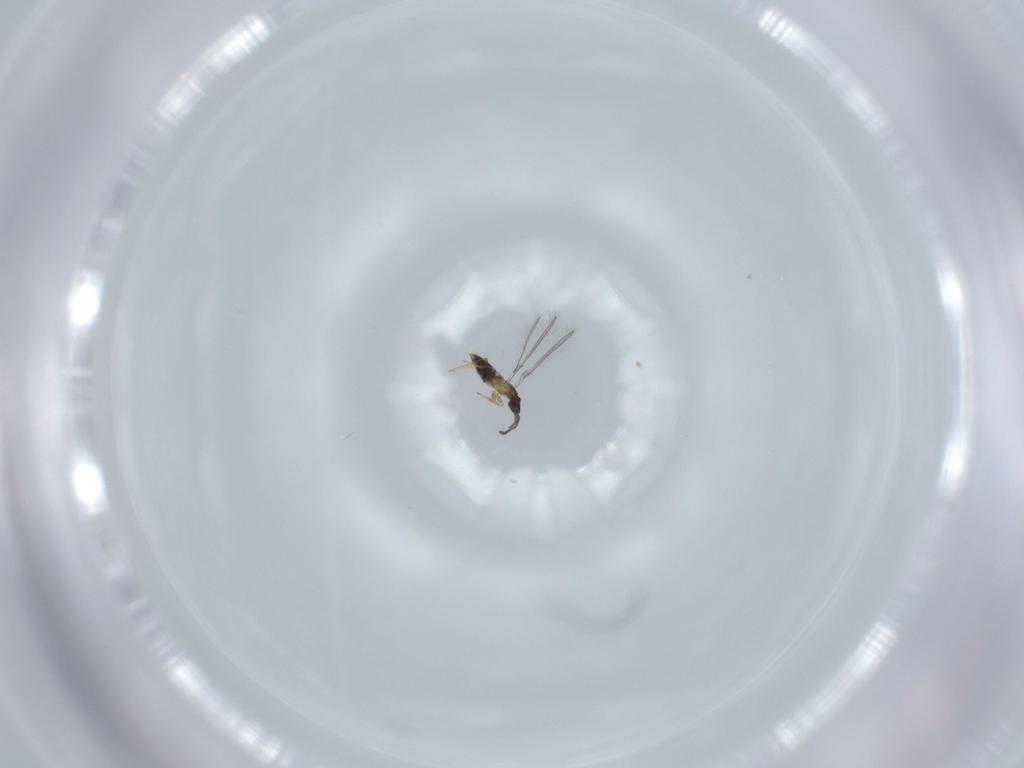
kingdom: Animalia
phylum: Arthropoda
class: Insecta
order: Hymenoptera
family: Mymaridae
